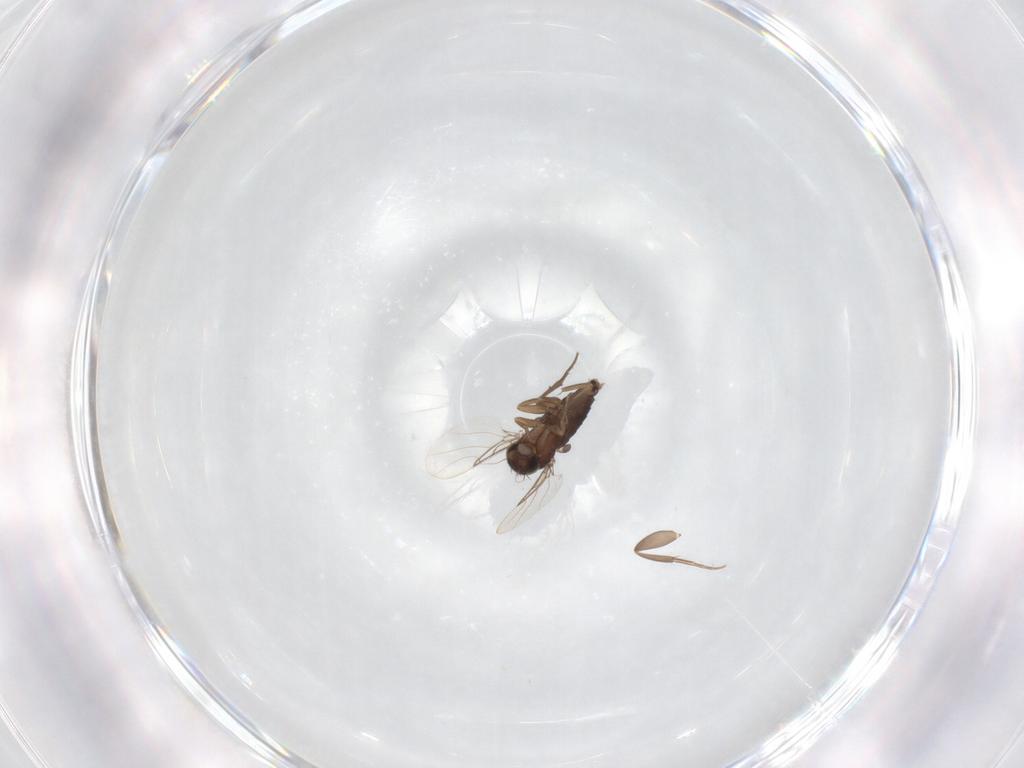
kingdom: Animalia
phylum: Arthropoda
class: Insecta
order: Diptera
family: Phoridae
